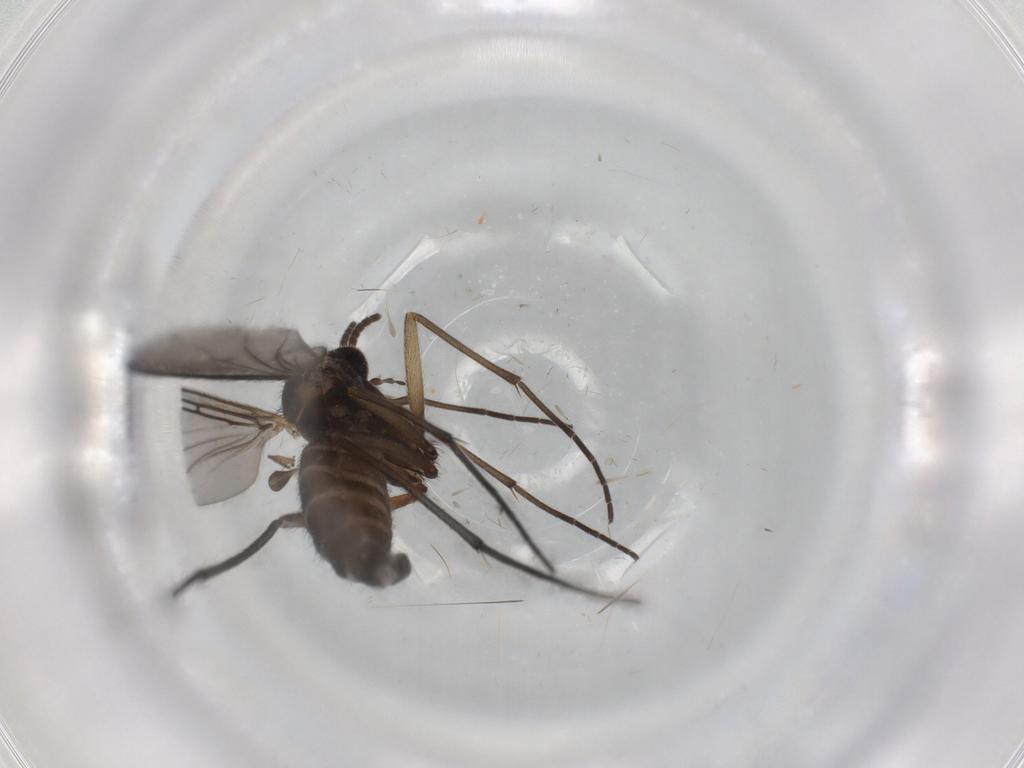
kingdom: Animalia
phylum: Arthropoda
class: Insecta
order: Diptera
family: Sciaridae
